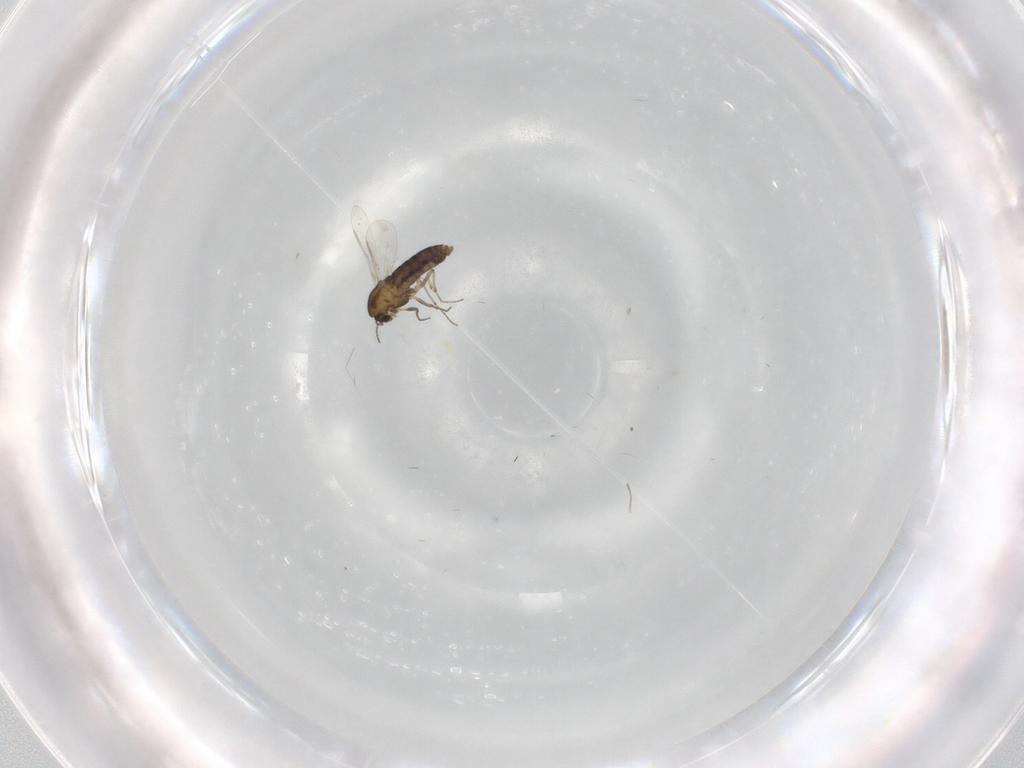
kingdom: Animalia
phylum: Arthropoda
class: Insecta
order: Diptera
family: Chironomidae
